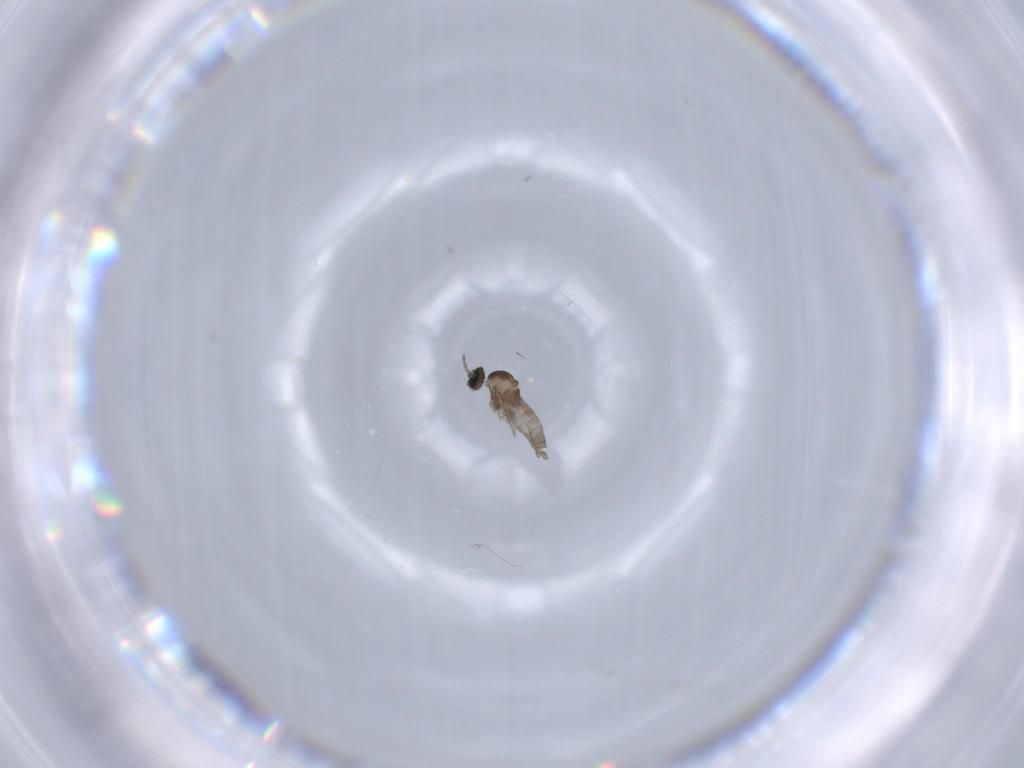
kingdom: Animalia
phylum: Arthropoda
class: Insecta
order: Diptera
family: Cecidomyiidae
